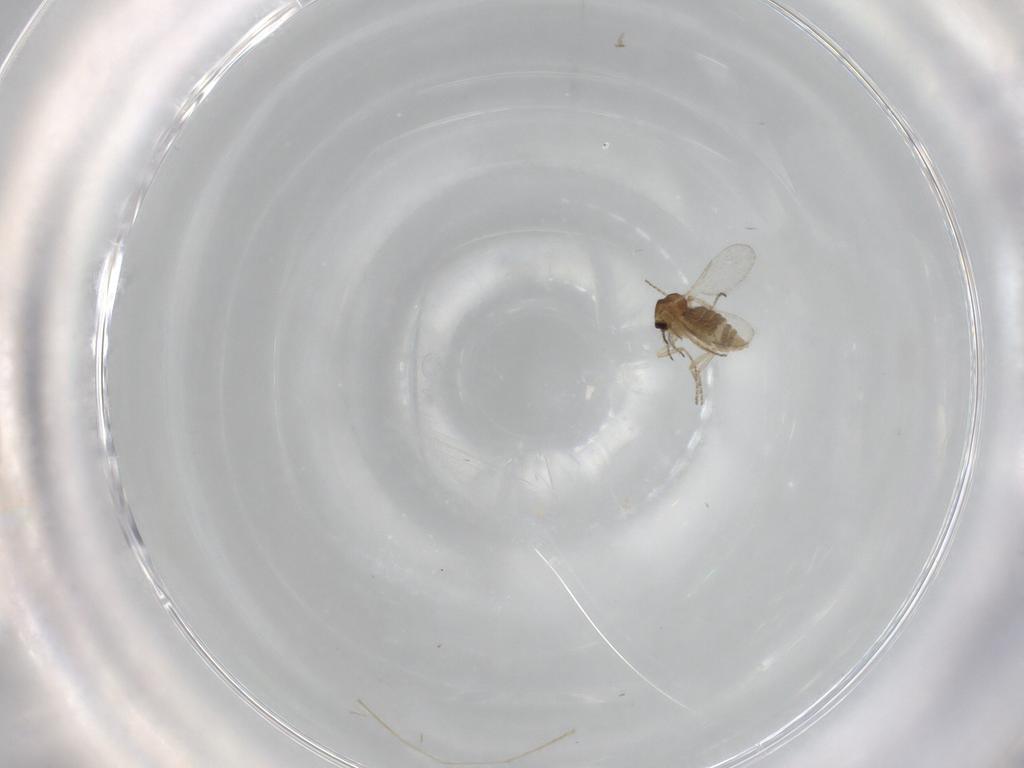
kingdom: Animalia
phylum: Arthropoda
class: Insecta
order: Diptera
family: Ceratopogonidae
